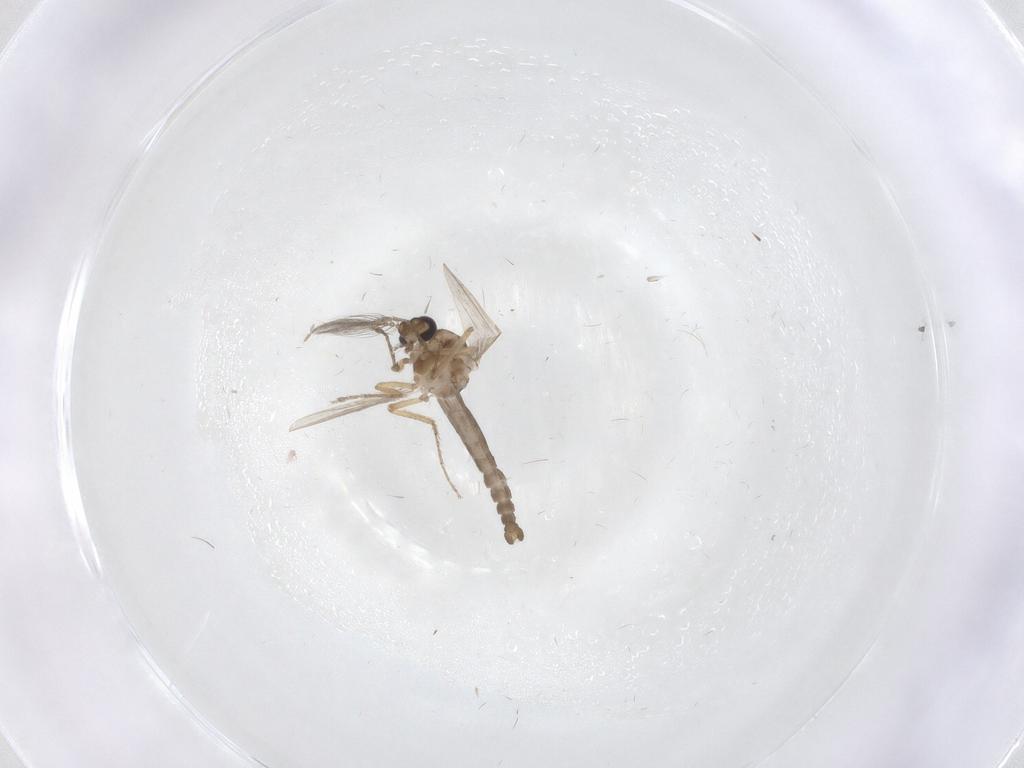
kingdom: Animalia
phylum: Arthropoda
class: Insecta
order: Diptera
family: Ceratopogonidae
